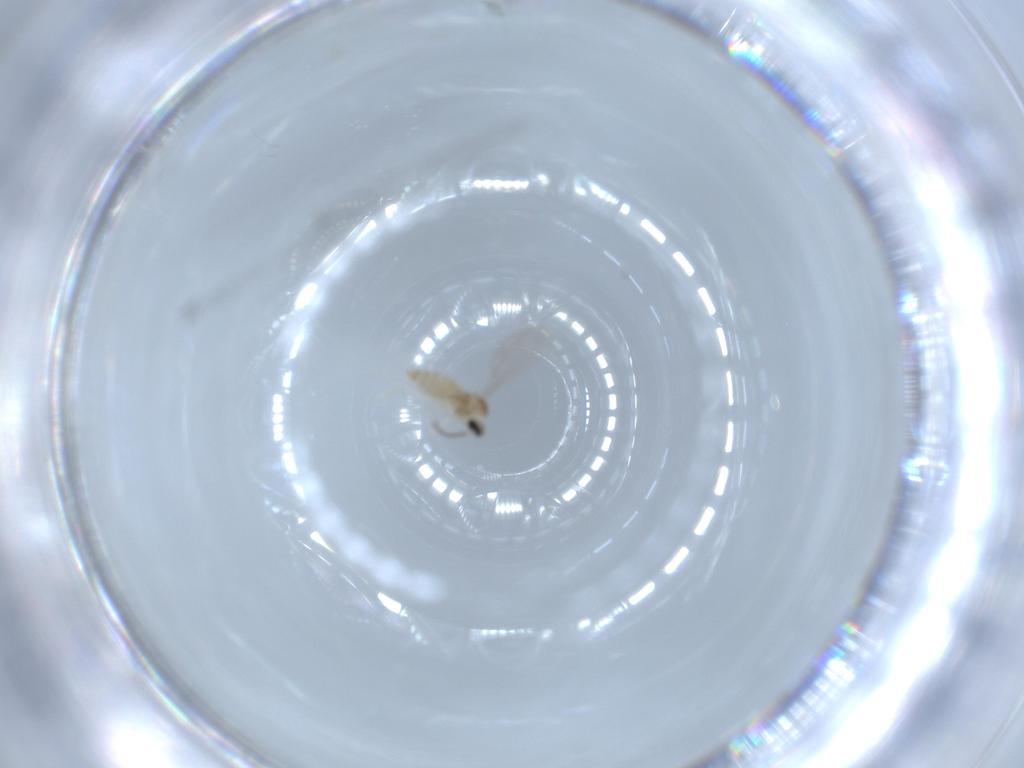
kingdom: Animalia
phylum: Arthropoda
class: Insecta
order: Diptera
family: Cecidomyiidae
